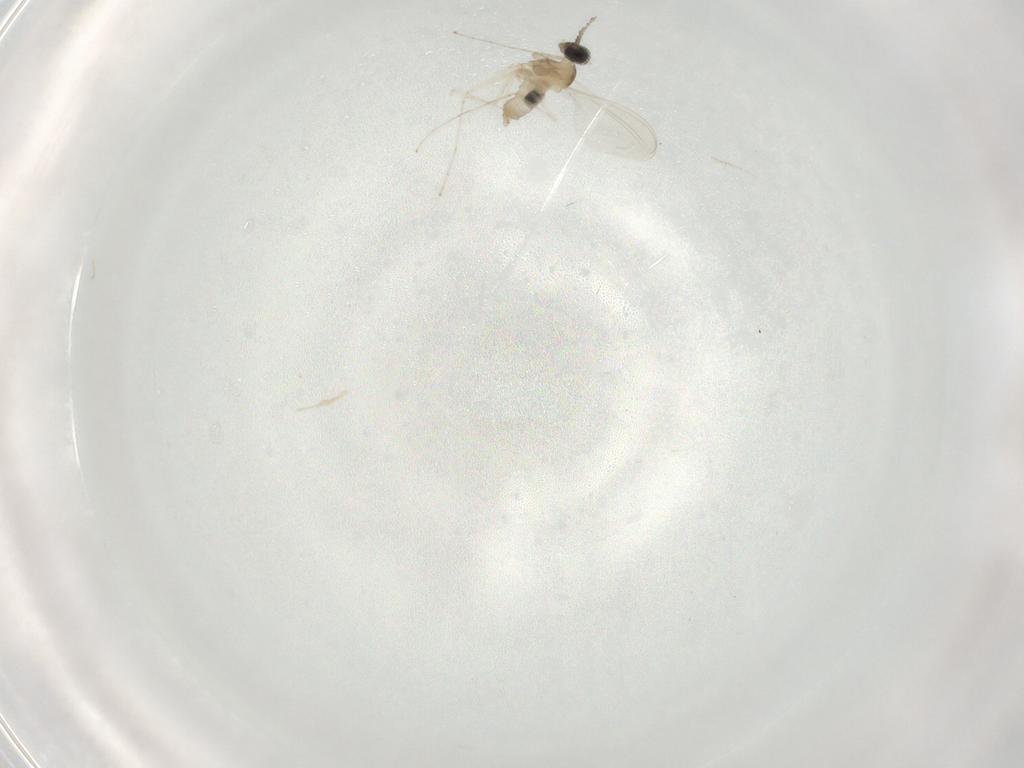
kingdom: Animalia
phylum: Arthropoda
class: Insecta
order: Diptera
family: Cecidomyiidae
